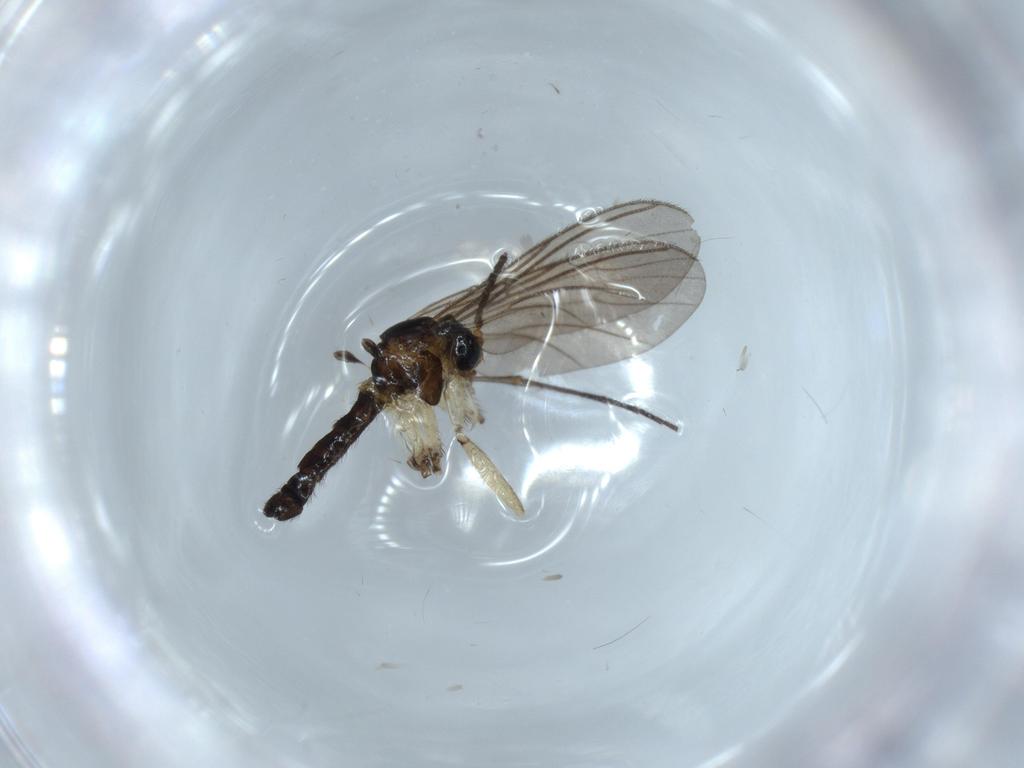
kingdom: Animalia
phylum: Arthropoda
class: Insecta
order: Diptera
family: Sciaridae
